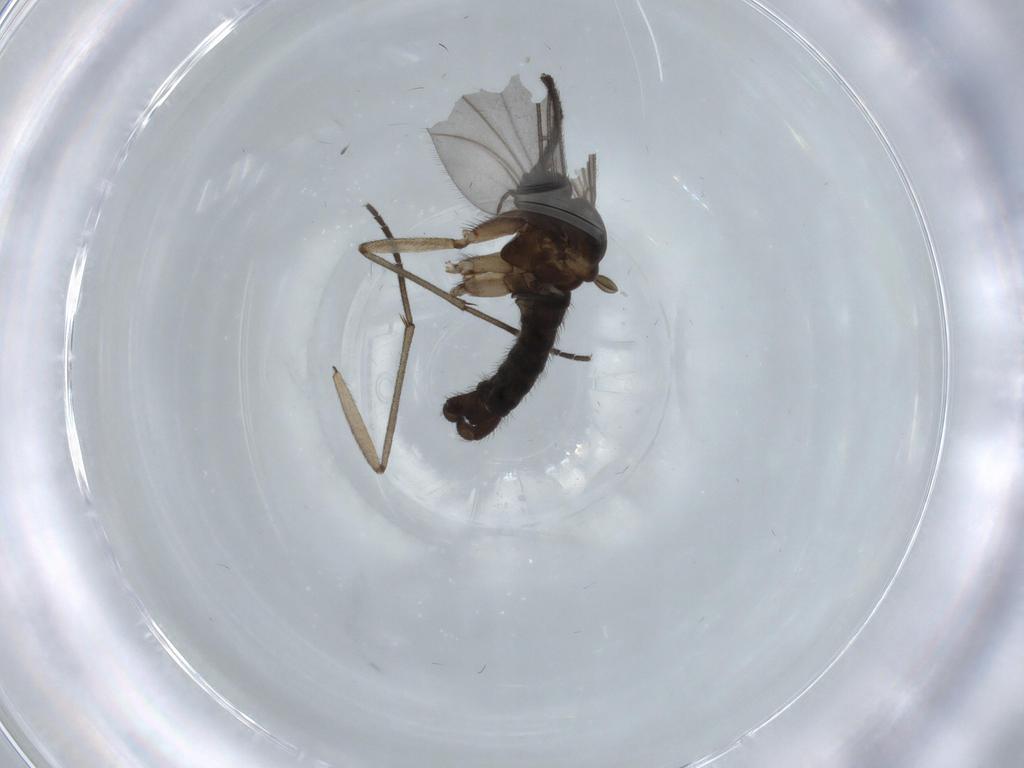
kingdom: Animalia
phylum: Arthropoda
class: Insecta
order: Diptera
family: Sciaridae
